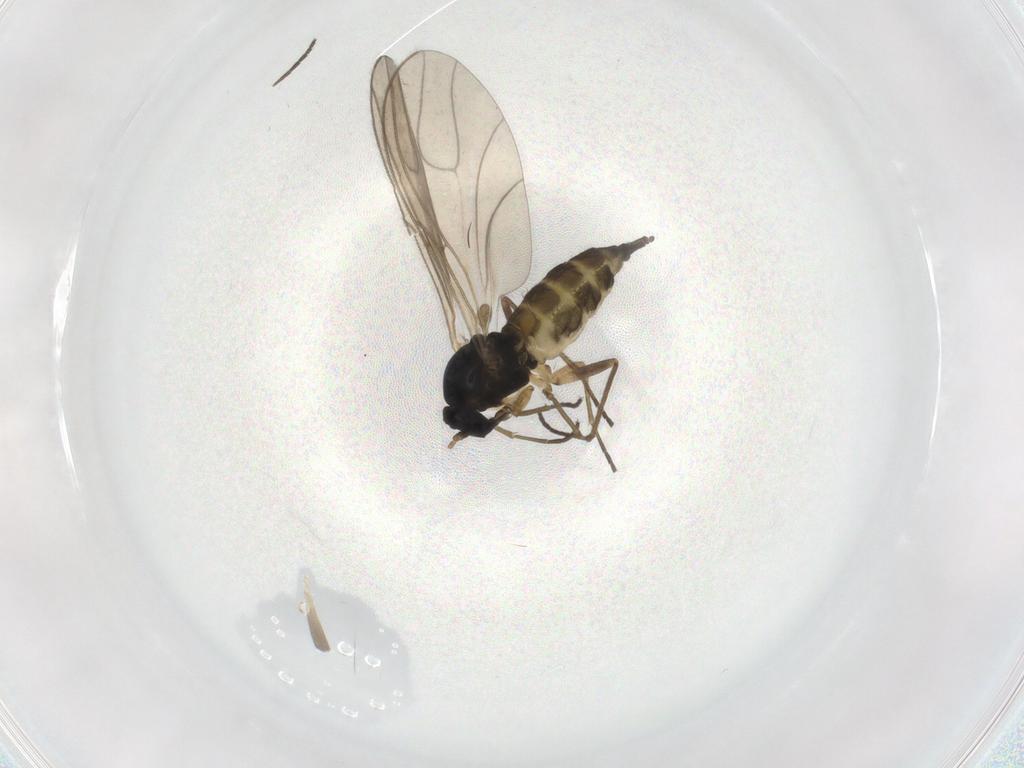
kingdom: Animalia
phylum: Arthropoda
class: Insecta
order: Diptera
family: Sciaridae
